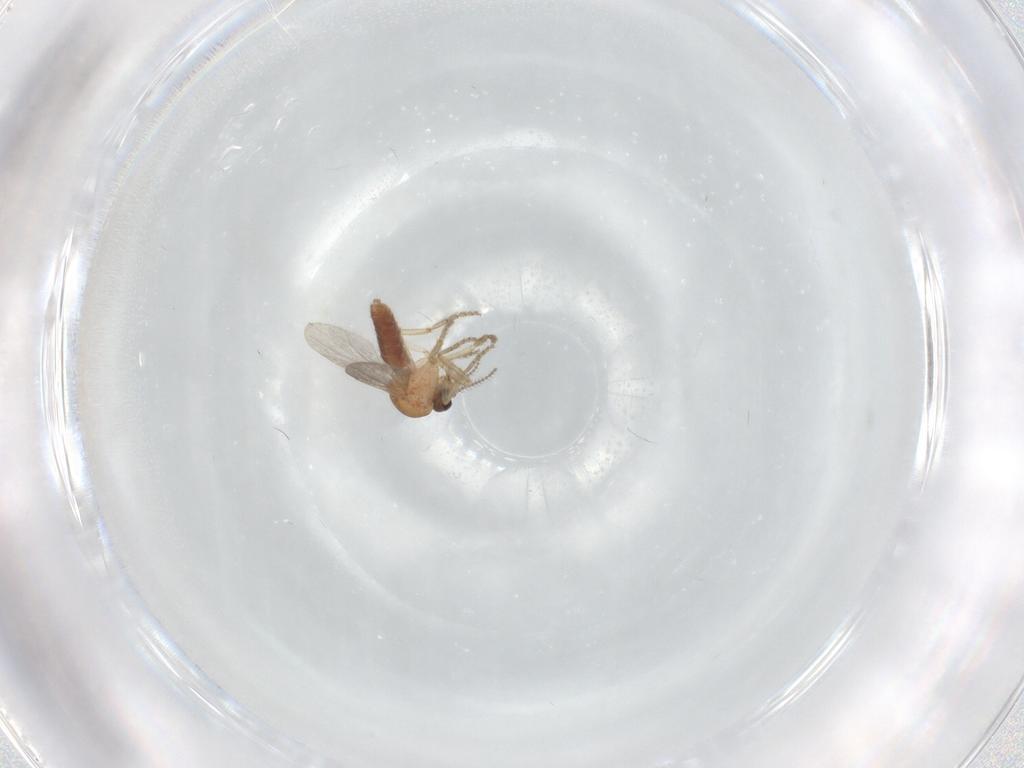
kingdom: Animalia
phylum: Arthropoda
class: Insecta
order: Diptera
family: Ceratopogonidae
